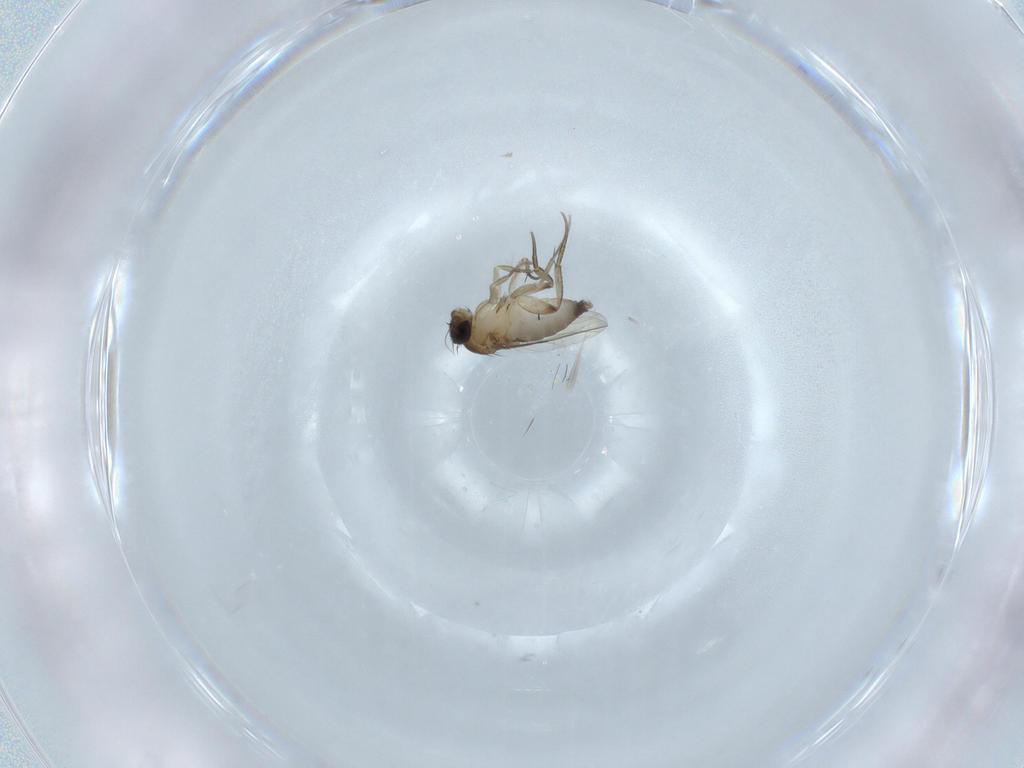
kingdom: Animalia
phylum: Arthropoda
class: Insecta
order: Diptera
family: Phoridae
